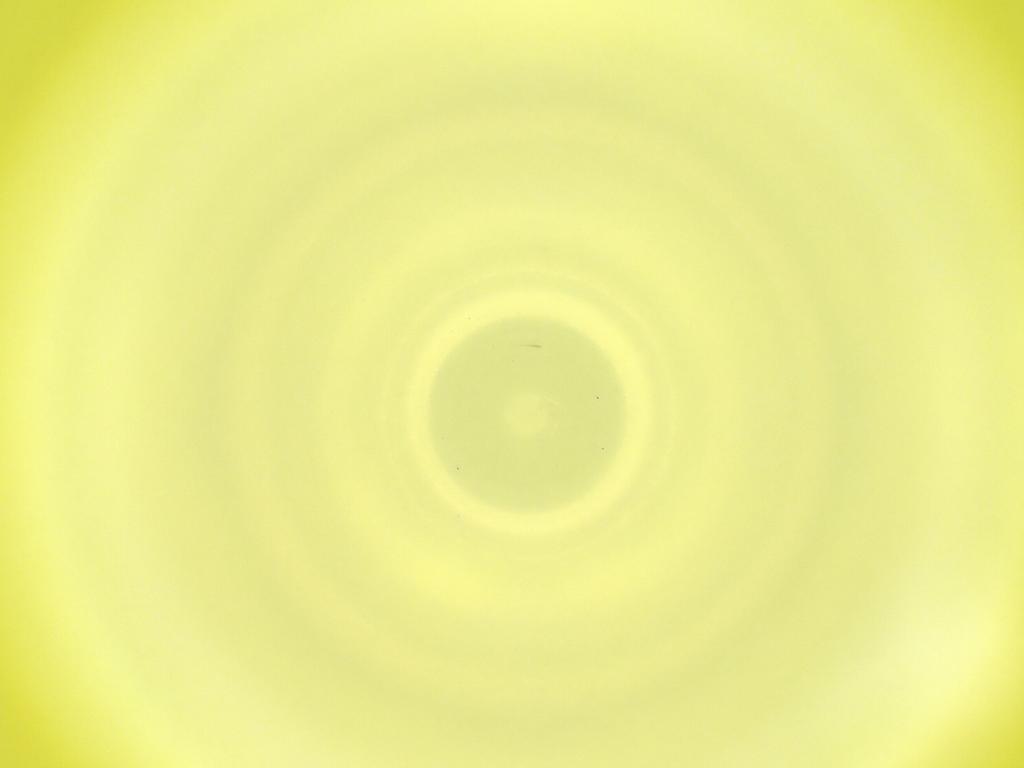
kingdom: Animalia
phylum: Arthropoda
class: Insecta
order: Diptera
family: Cecidomyiidae
